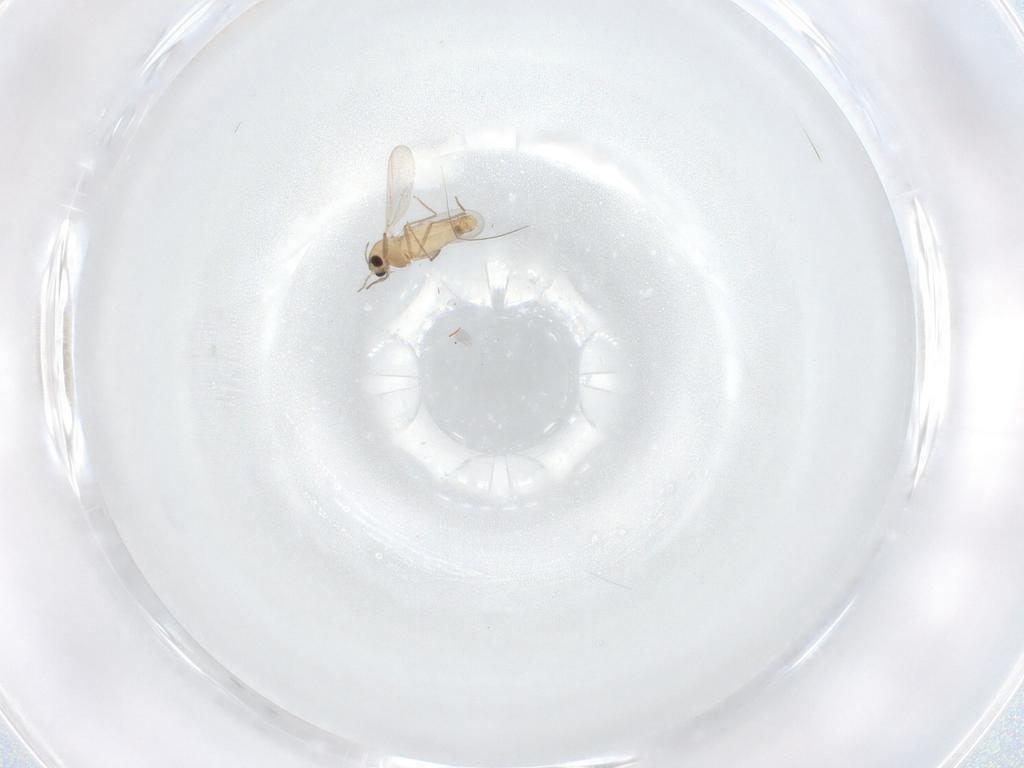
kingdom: Animalia
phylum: Arthropoda
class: Insecta
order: Diptera
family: Chironomidae
